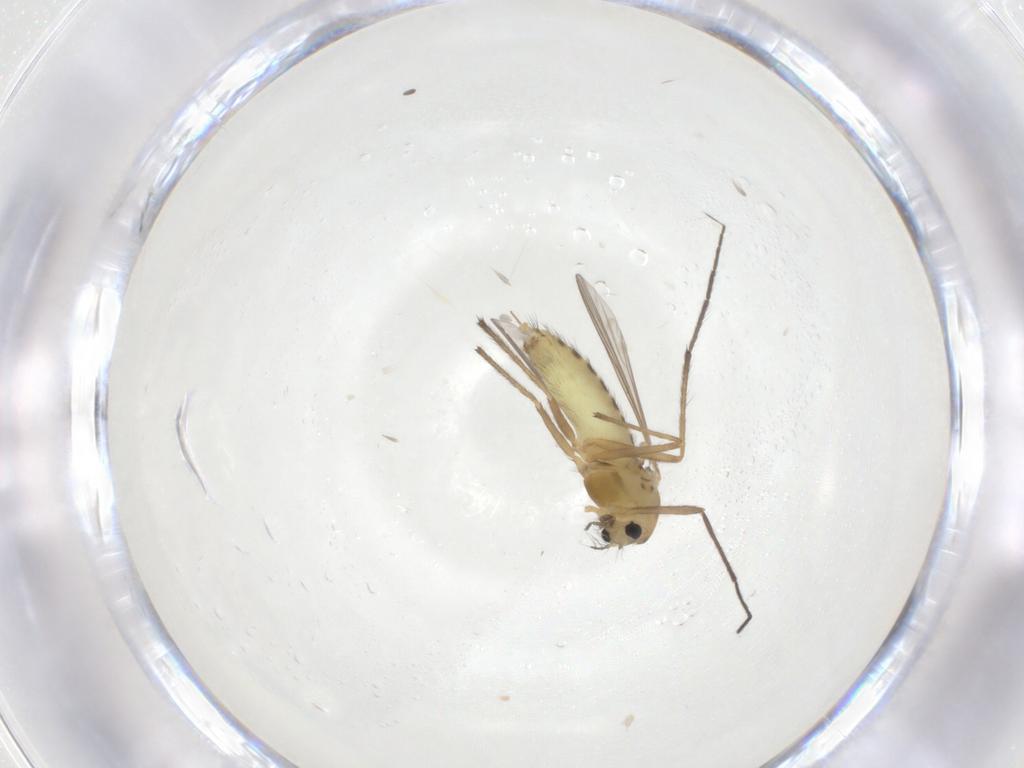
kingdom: Animalia
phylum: Arthropoda
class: Insecta
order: Diptera
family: Chironomidae
